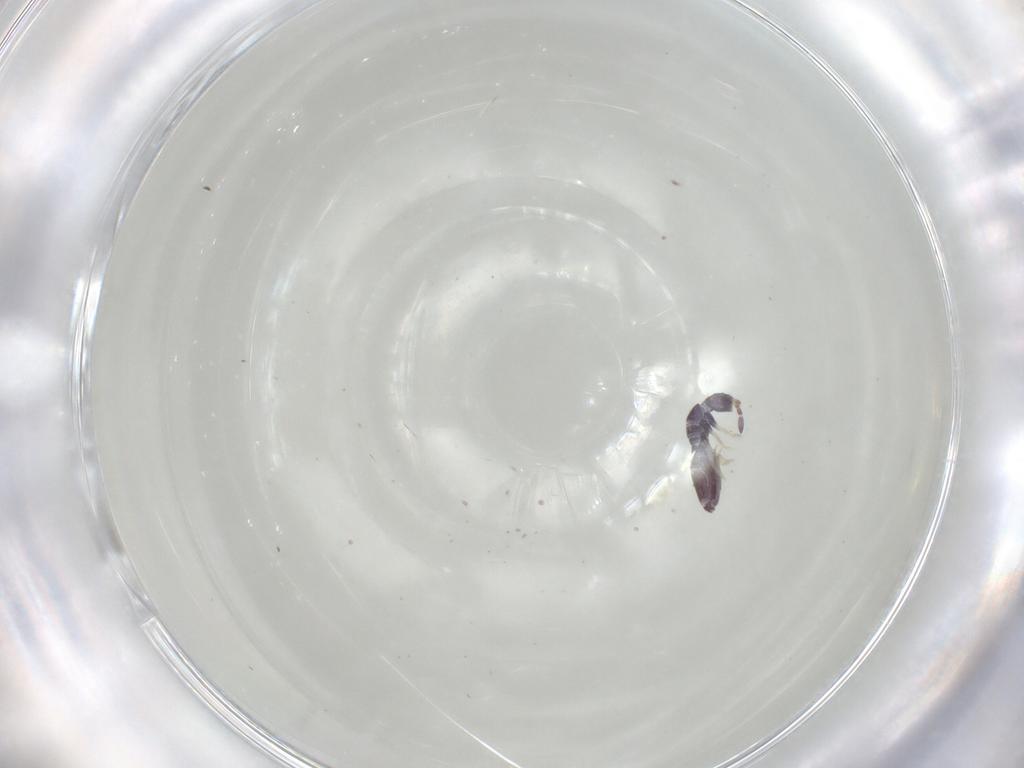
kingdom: Animalia
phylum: Arthropoda
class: Collembola
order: Entomobryomorpha
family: Entomobryidae
